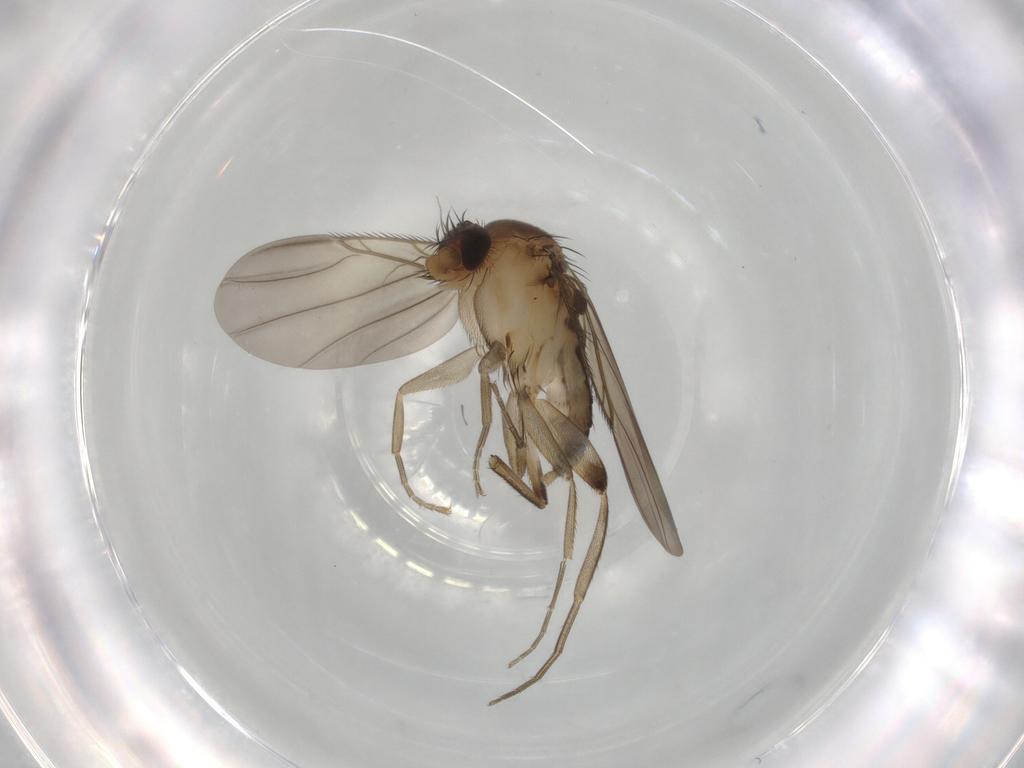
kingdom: Animalia
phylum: Arthropoda
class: Insecta
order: Diptera
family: Phoridae
